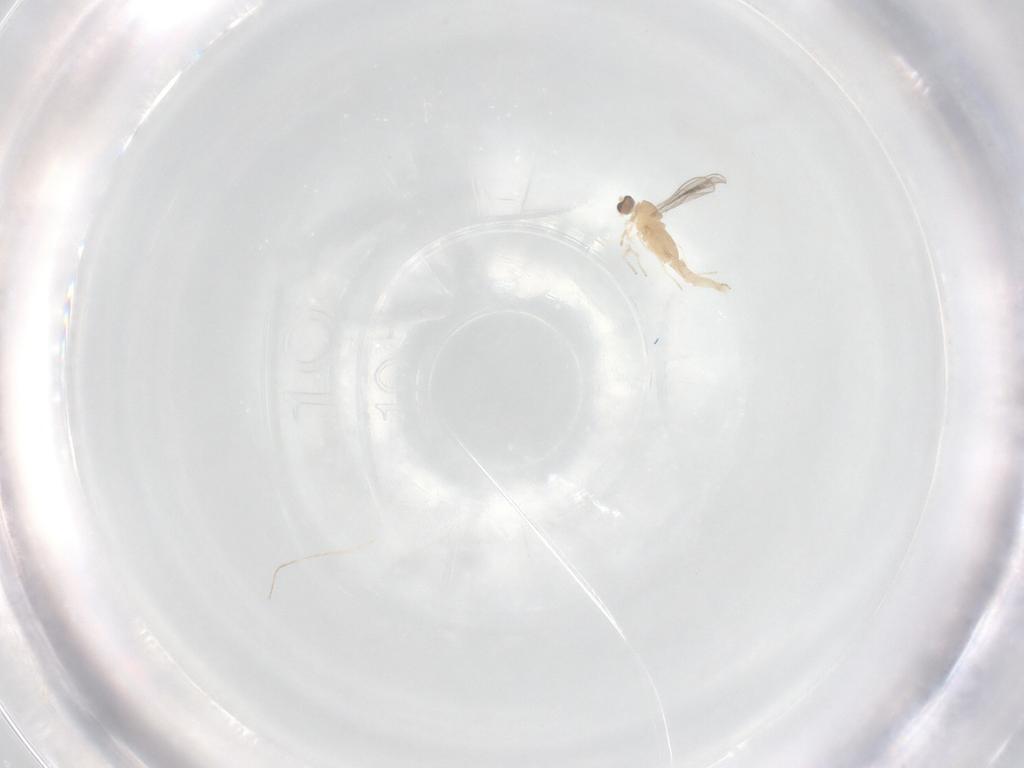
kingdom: Animalia
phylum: Arthropoda
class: Insecta
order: Diptera
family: Cecidomyiidae
